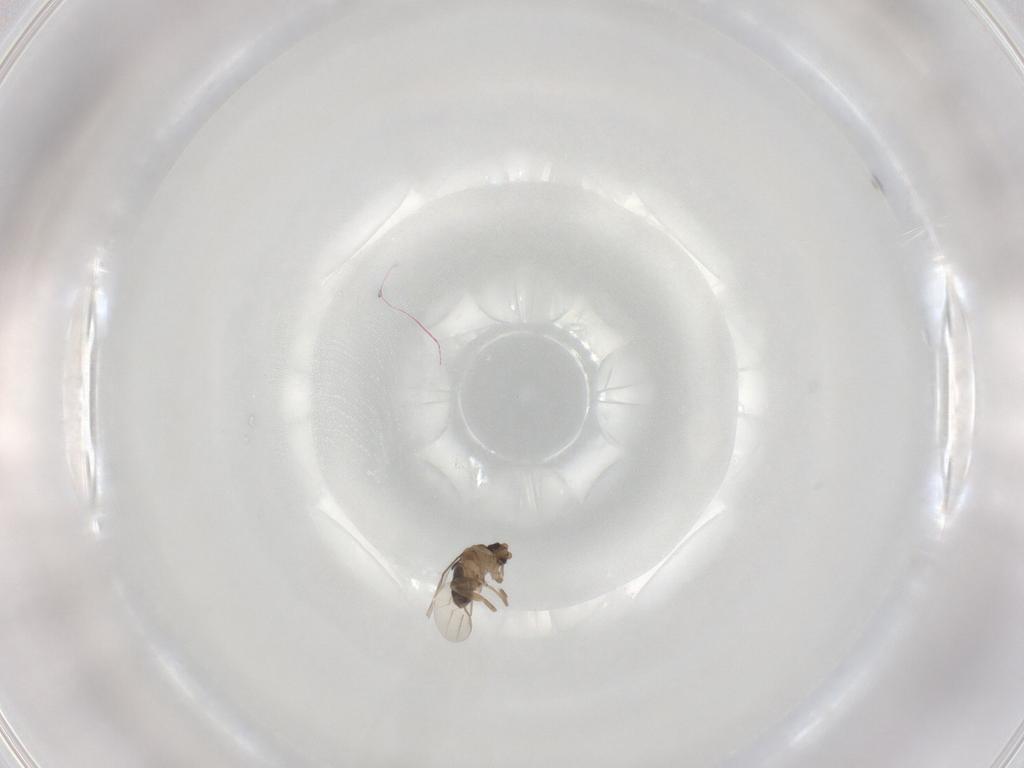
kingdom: Animalia
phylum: Arthropoda
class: Insecta
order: Diptera
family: Phoridae
